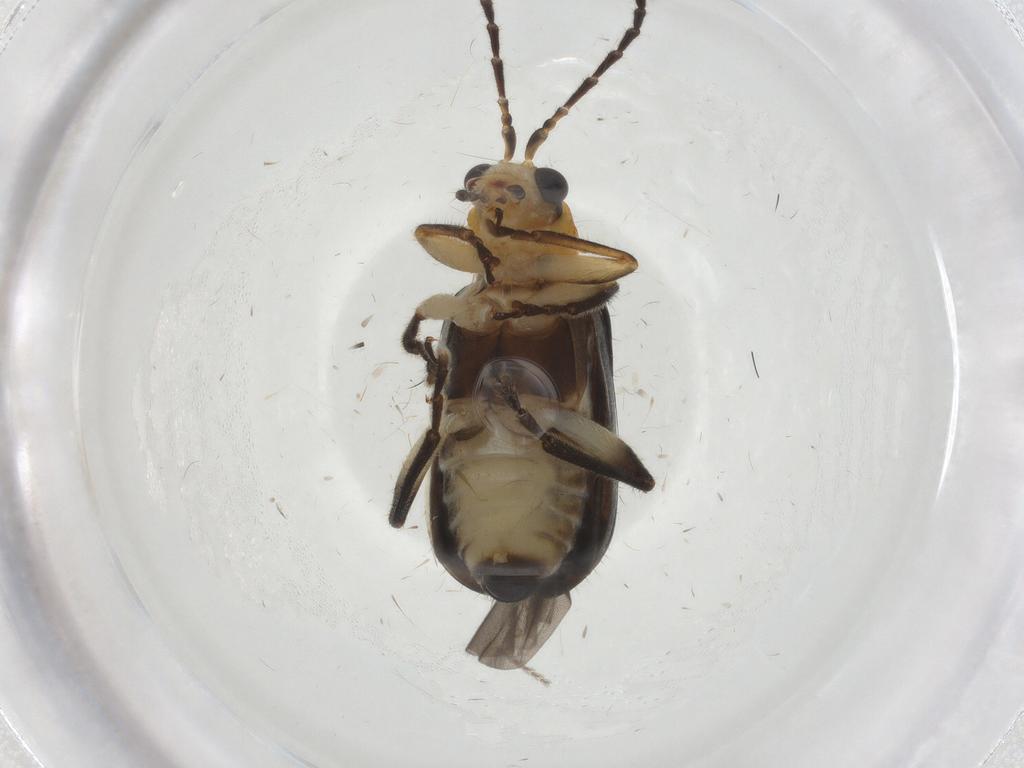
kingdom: Animalia
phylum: Arthropoda
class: Insecta
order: Coleoptera
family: Chrysomelidae
